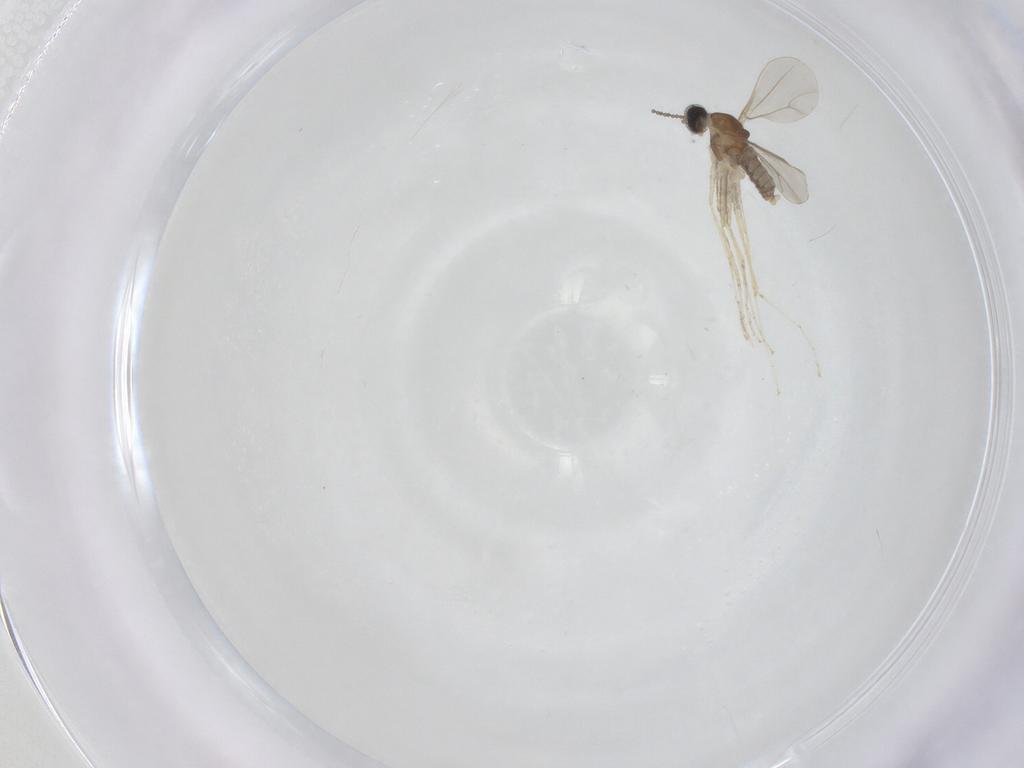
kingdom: Animalia
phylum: Arthropoda
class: Insecta
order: Diptera
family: Cecidomyiidae
